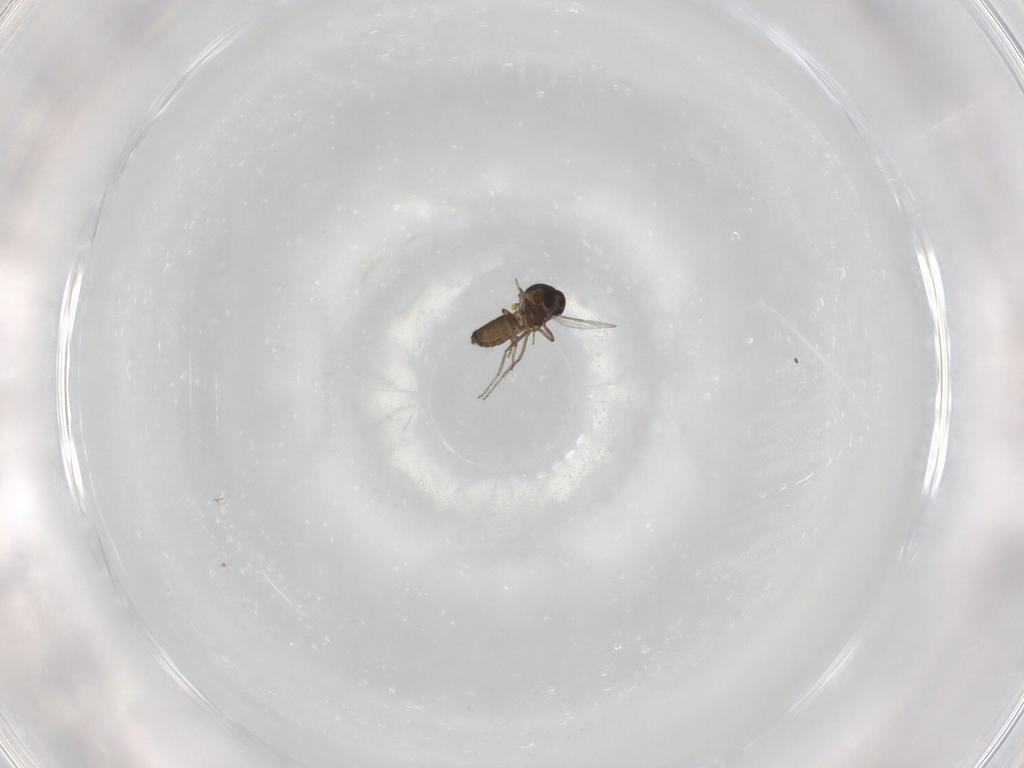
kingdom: Animalia
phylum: Arthropoda
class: Insecta
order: Diptera
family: Ceratopogonidae
